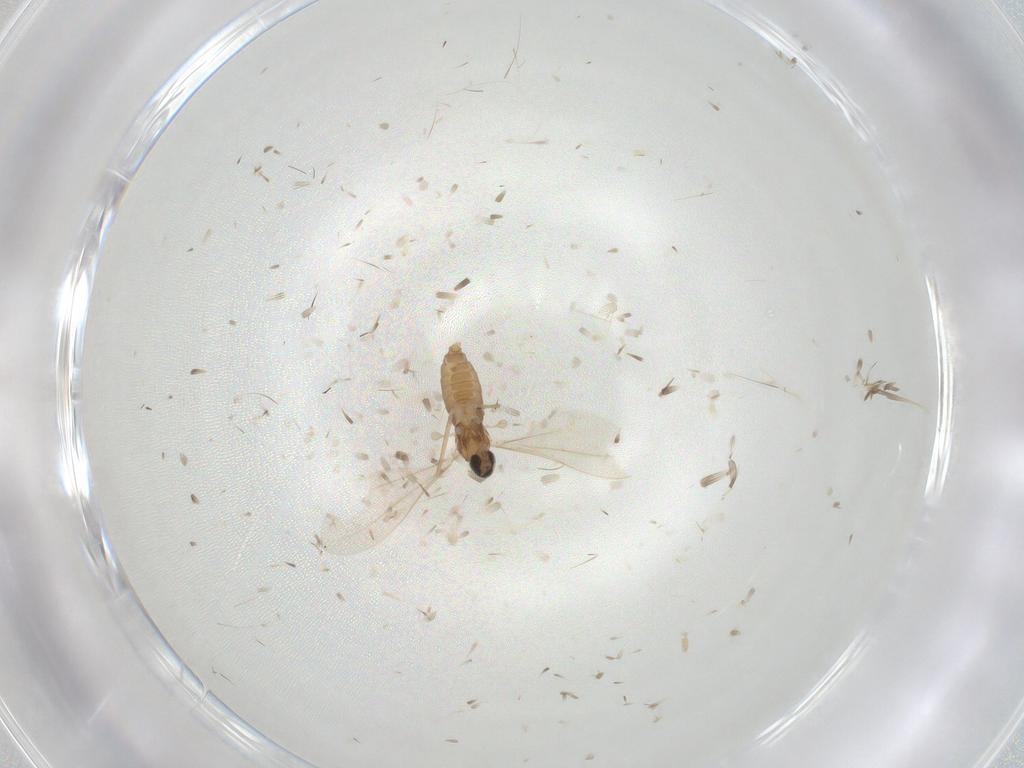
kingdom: Animalia
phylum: Arthropoda
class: Insecta
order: Diptera
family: Cecidomyiidae
